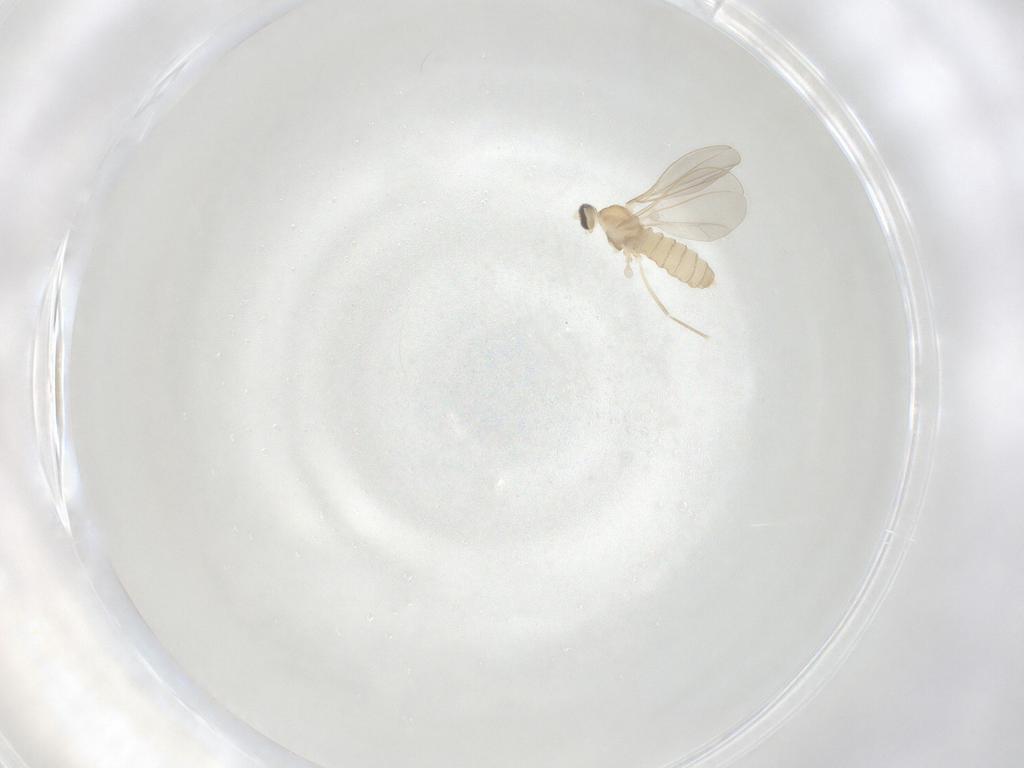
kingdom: Animalia
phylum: Arthropoda
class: Insecta
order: Diptera
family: Cecidomyiidae
